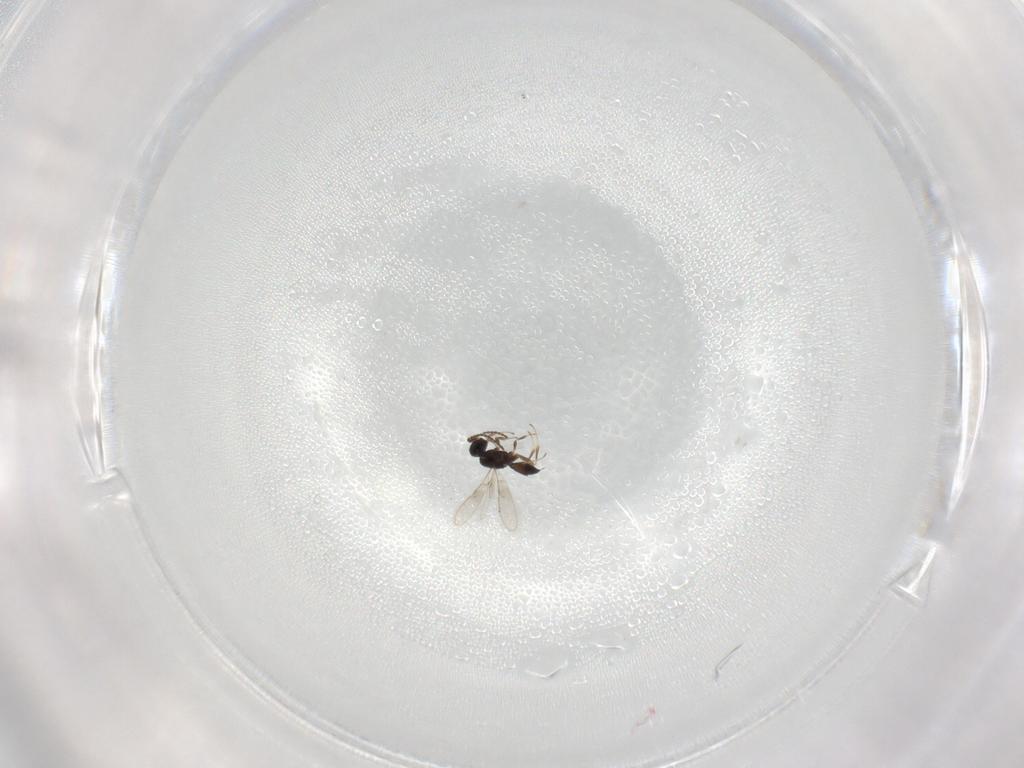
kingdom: Animalia
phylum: Arthropoda
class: Insecta
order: Hymenoptera
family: Scelionidae
